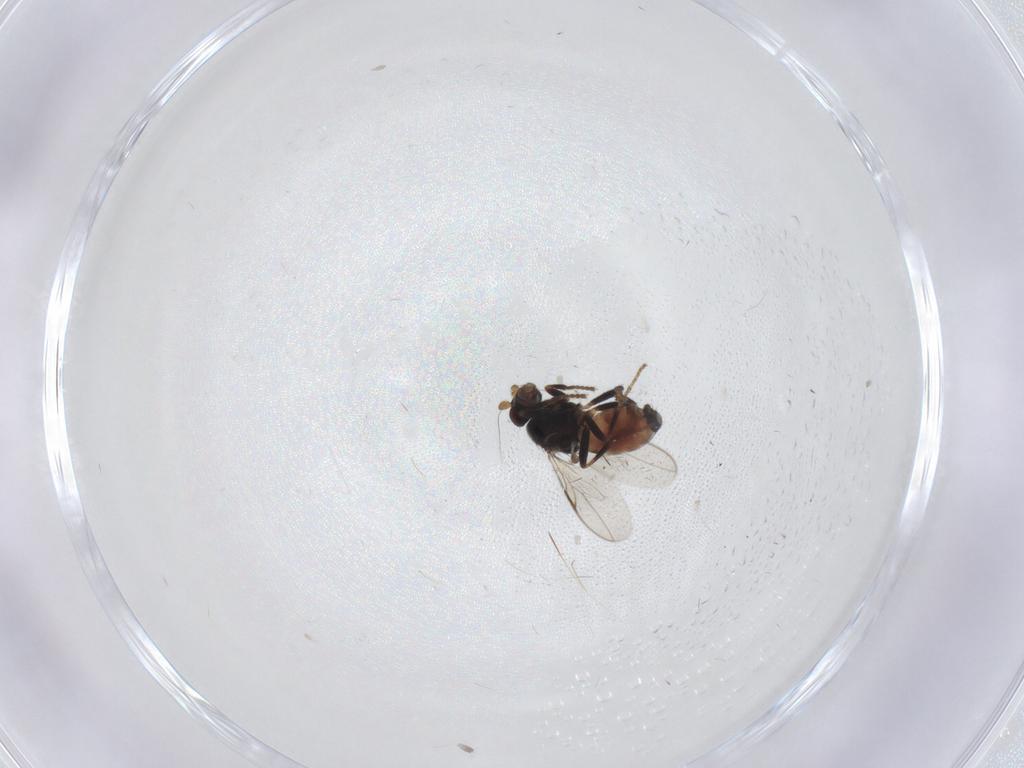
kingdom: Animalia
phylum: Arthropoda
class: Insecta
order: Diptera
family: Sphaeroceridae
